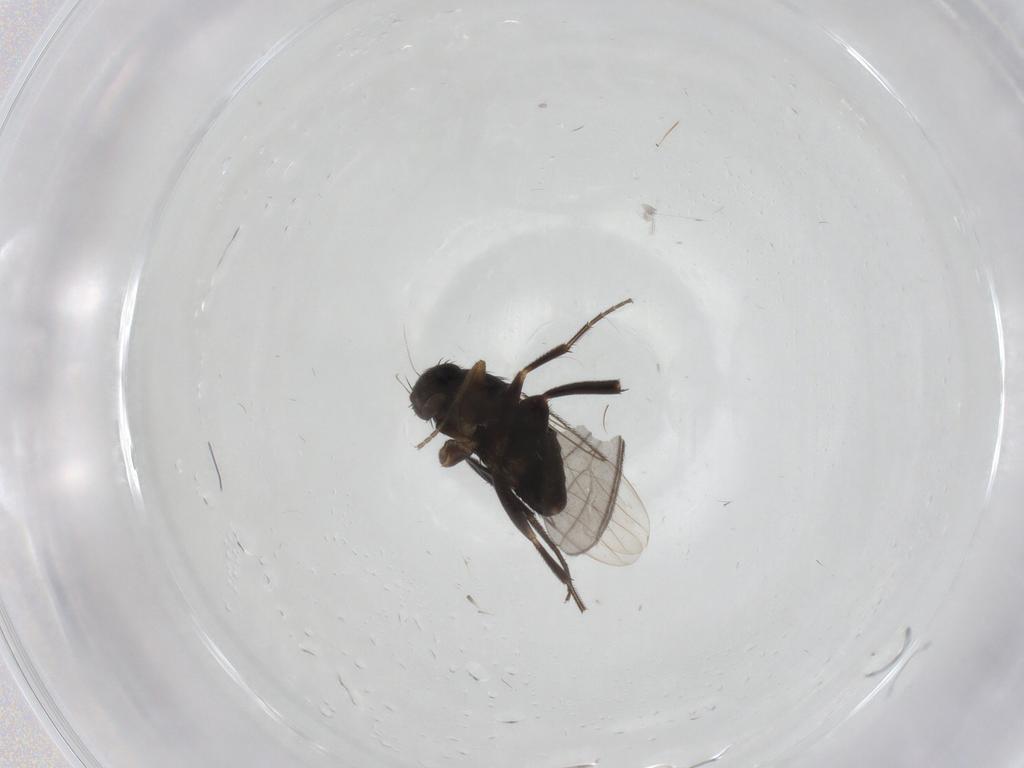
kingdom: Animalia
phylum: Arthropoda
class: Insecta
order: Diptera
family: Phoridae
